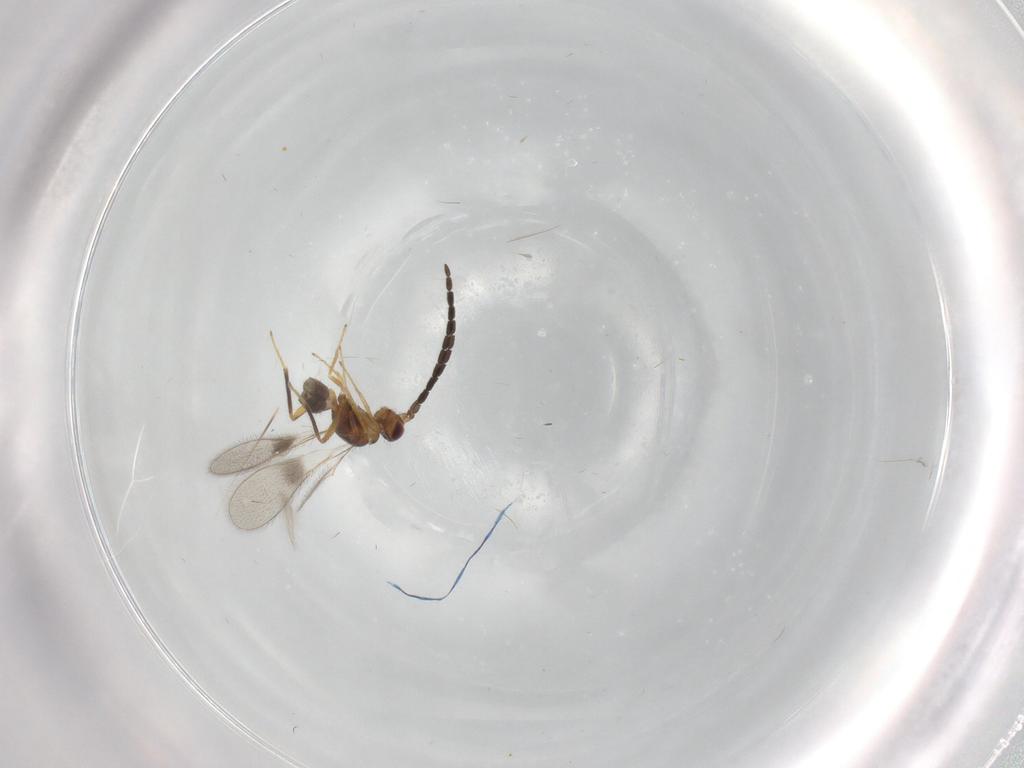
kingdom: Animalia
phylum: Arthropoda
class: Insecta
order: Hymenoptera
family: Mymaridae
